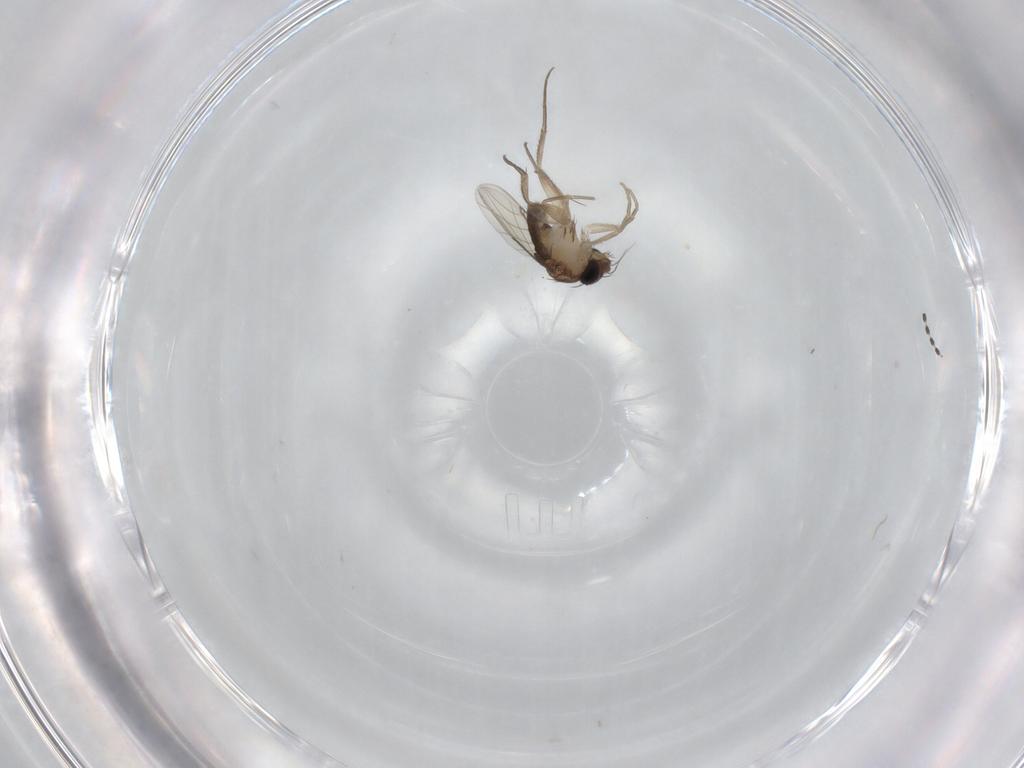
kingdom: Animalia
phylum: Arthropoda
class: Insecta
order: Diptera
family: Phoridae
